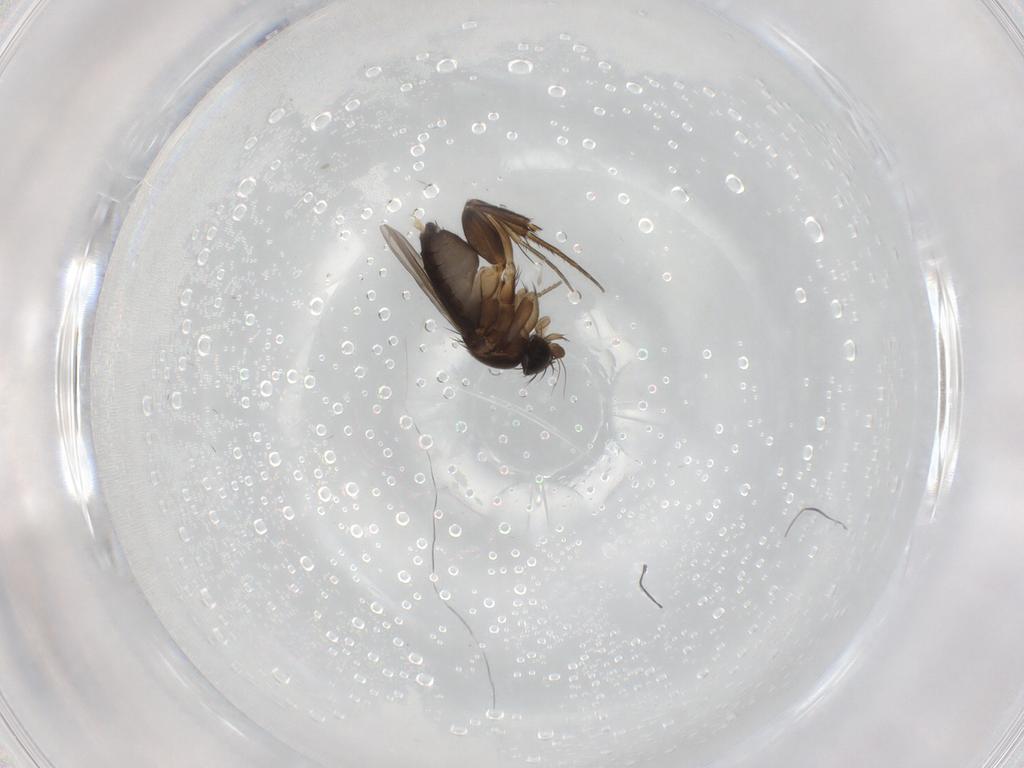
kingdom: Animalia
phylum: Arthropoda
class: Insecta
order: Diptera
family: Phoridae
